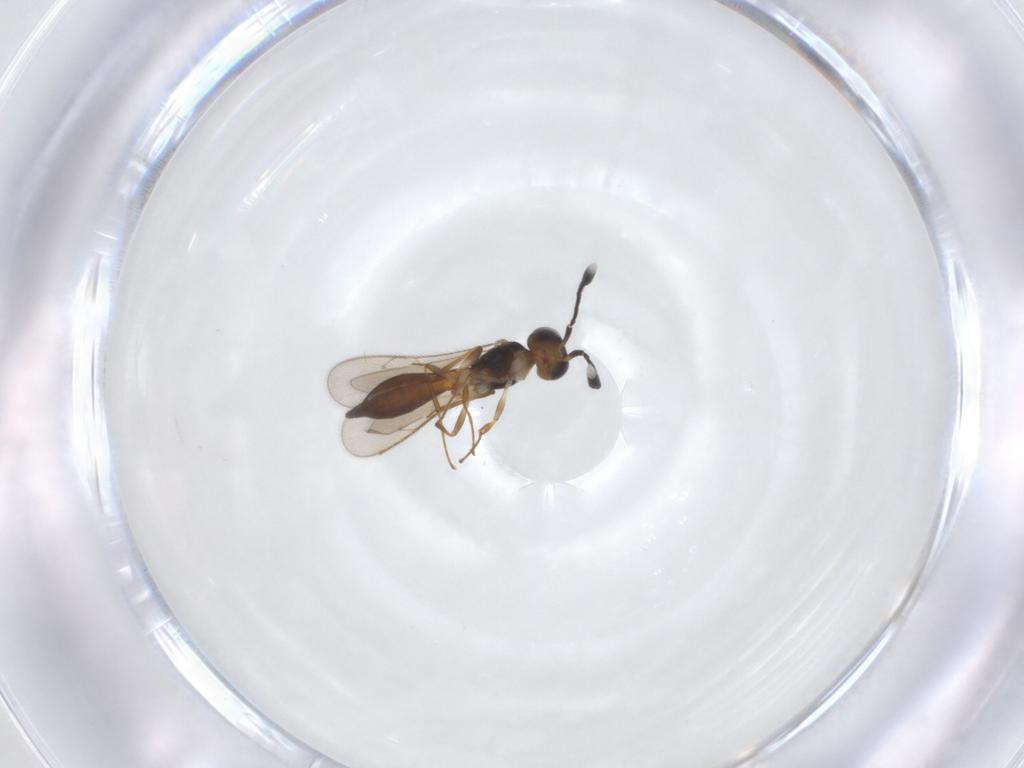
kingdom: Animalia
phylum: Arthropoda
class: Insecta
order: Hymenoptera
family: Scelionidae
